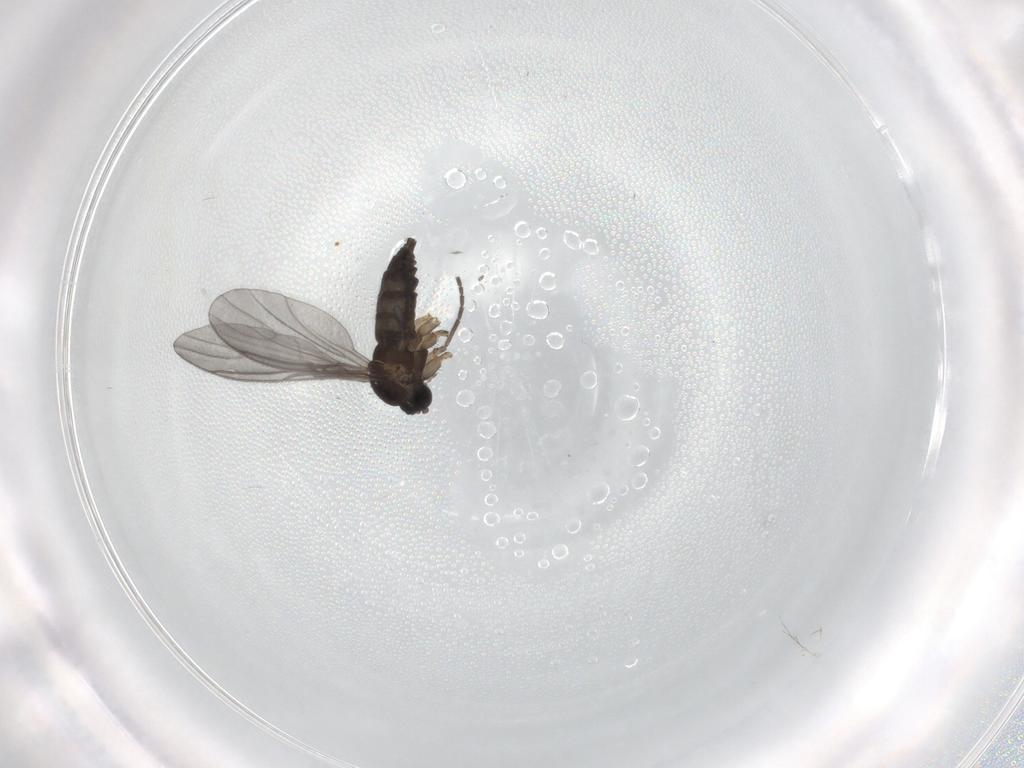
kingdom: Animalia
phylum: Arthropoda
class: Insecta
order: Diptera
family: Sciaridae
